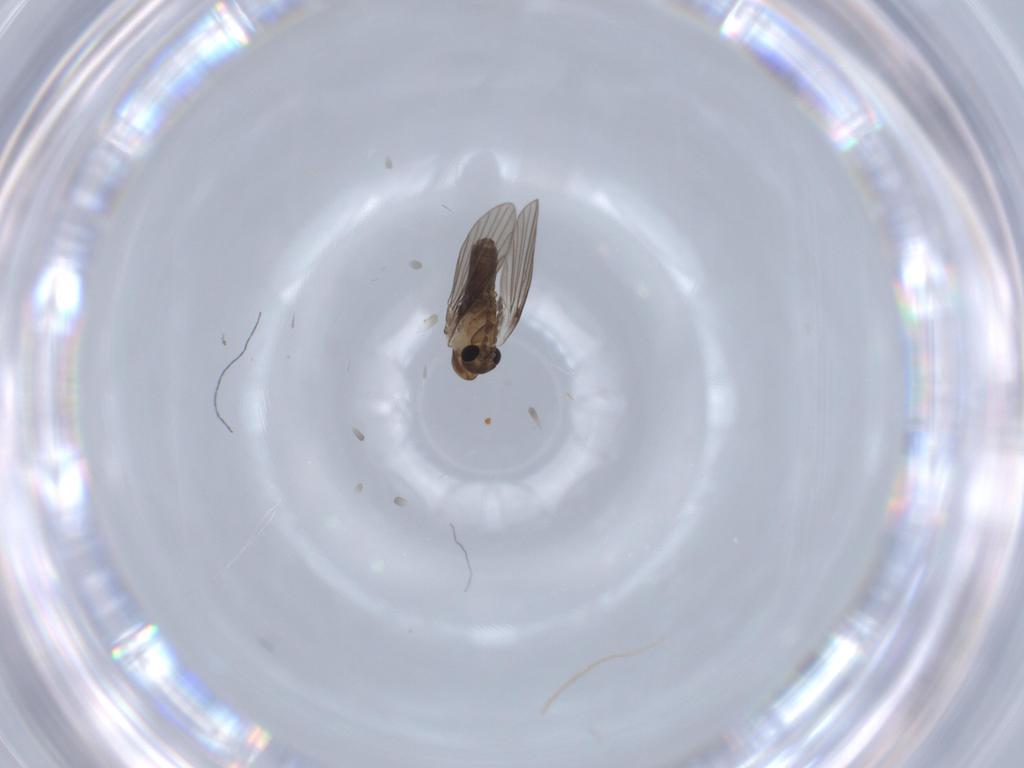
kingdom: Animalia
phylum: Arthropoda
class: Insecta
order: Diptera
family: Psychodidae
